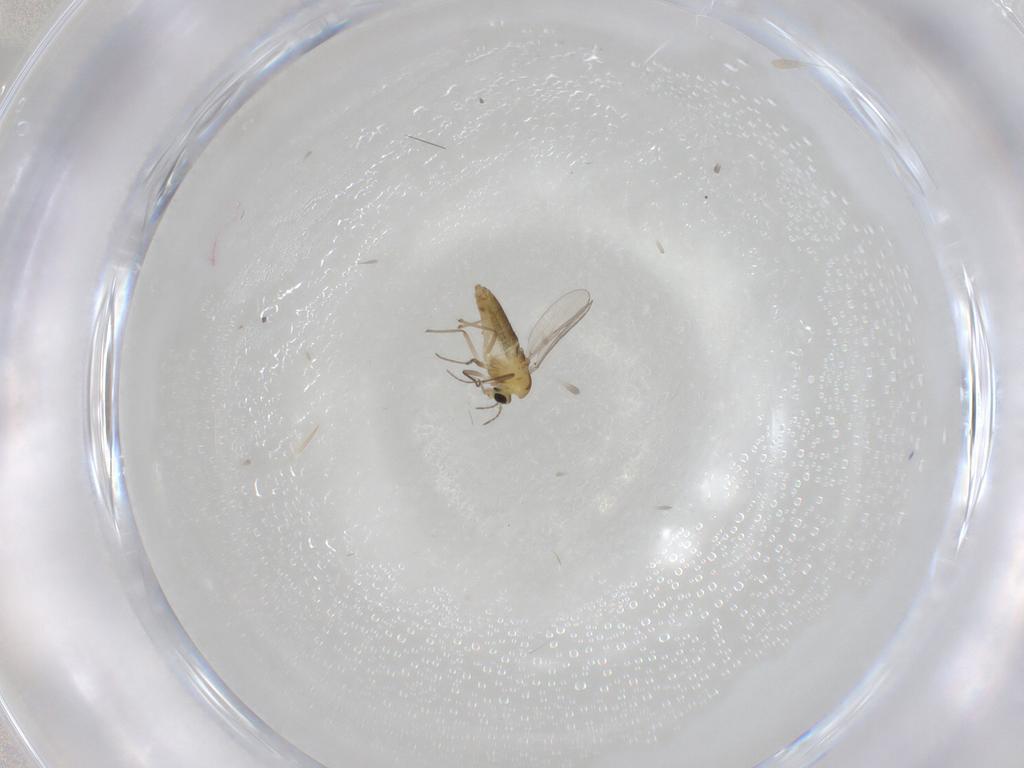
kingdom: Animalia
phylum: Arthropoda
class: Insecta
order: Diptera
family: Chironomidae
